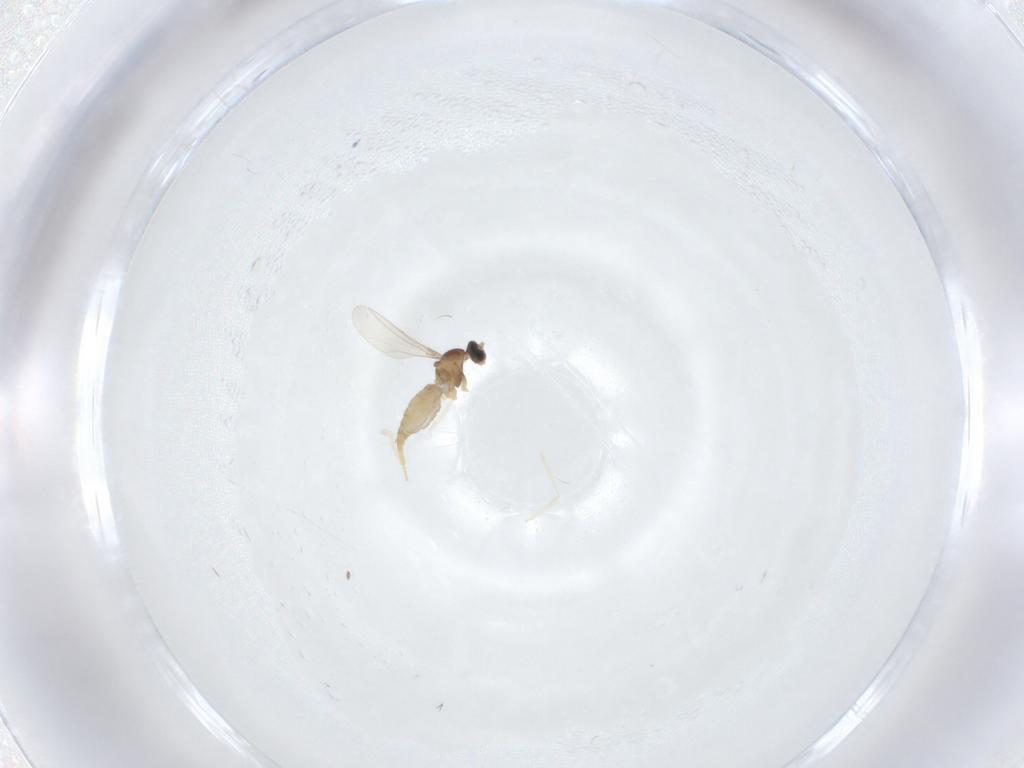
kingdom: Animalia
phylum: Arthropoda
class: Insecta
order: Diptera
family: Cecidomyiidae
